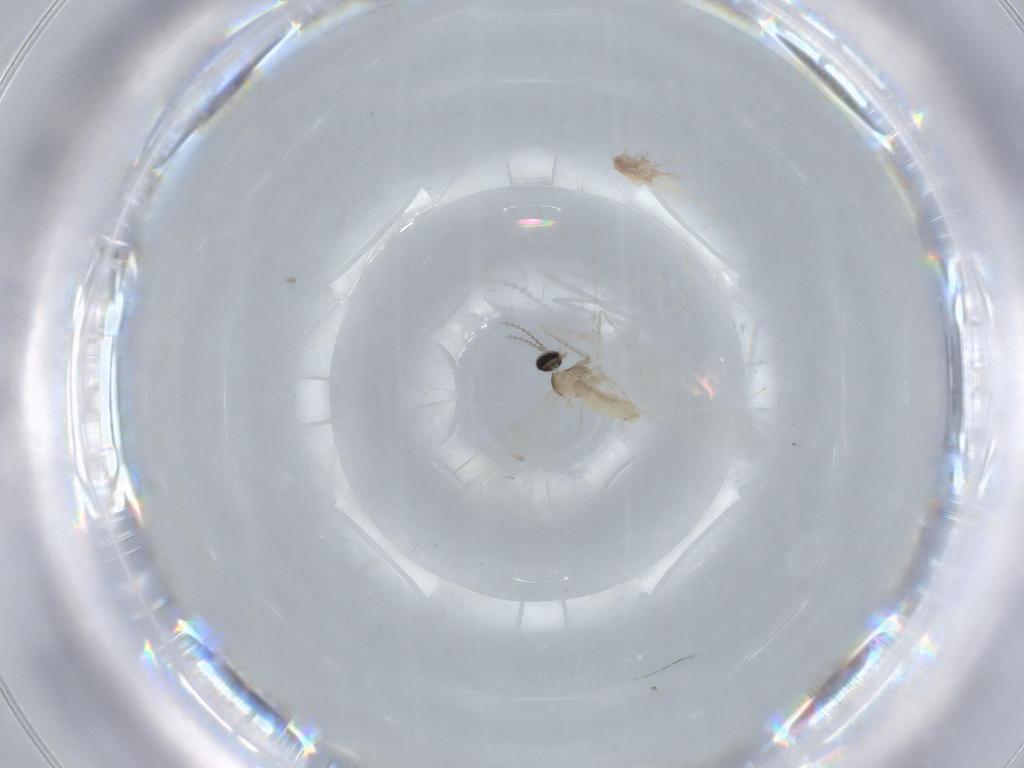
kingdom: Animalia
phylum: Arthropoda
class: Insecta
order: Diptera
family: Cecidomyiidae
